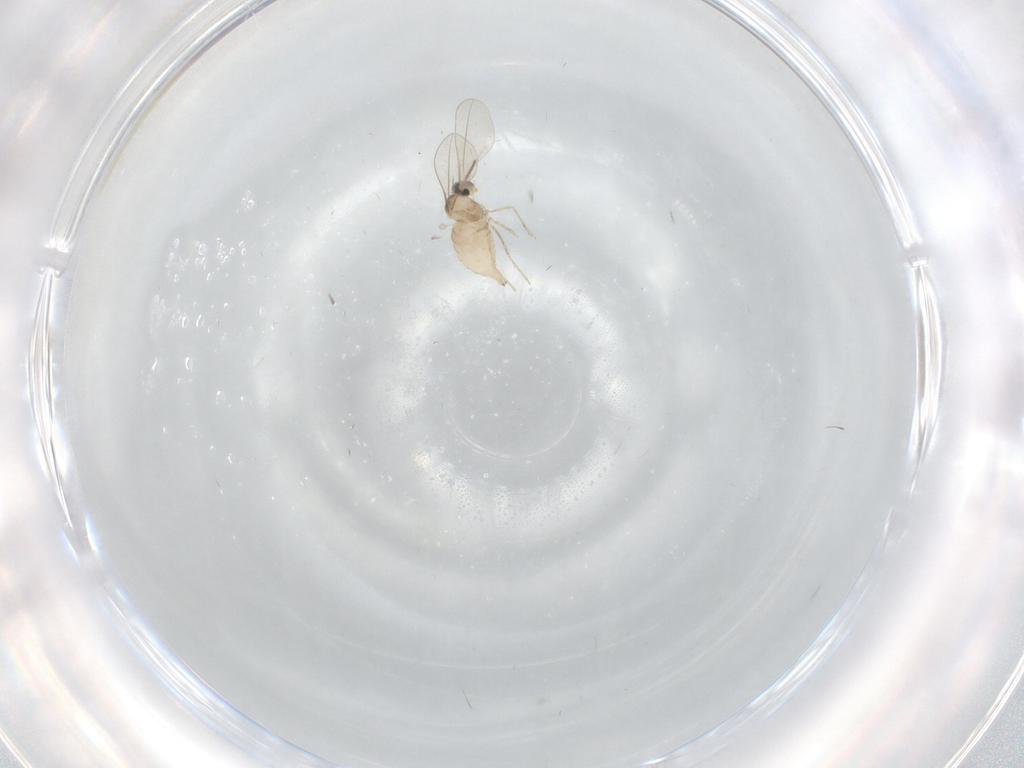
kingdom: Animalia
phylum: Arthropoda
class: Insecta
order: Diptera
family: Cecidomyiidae
